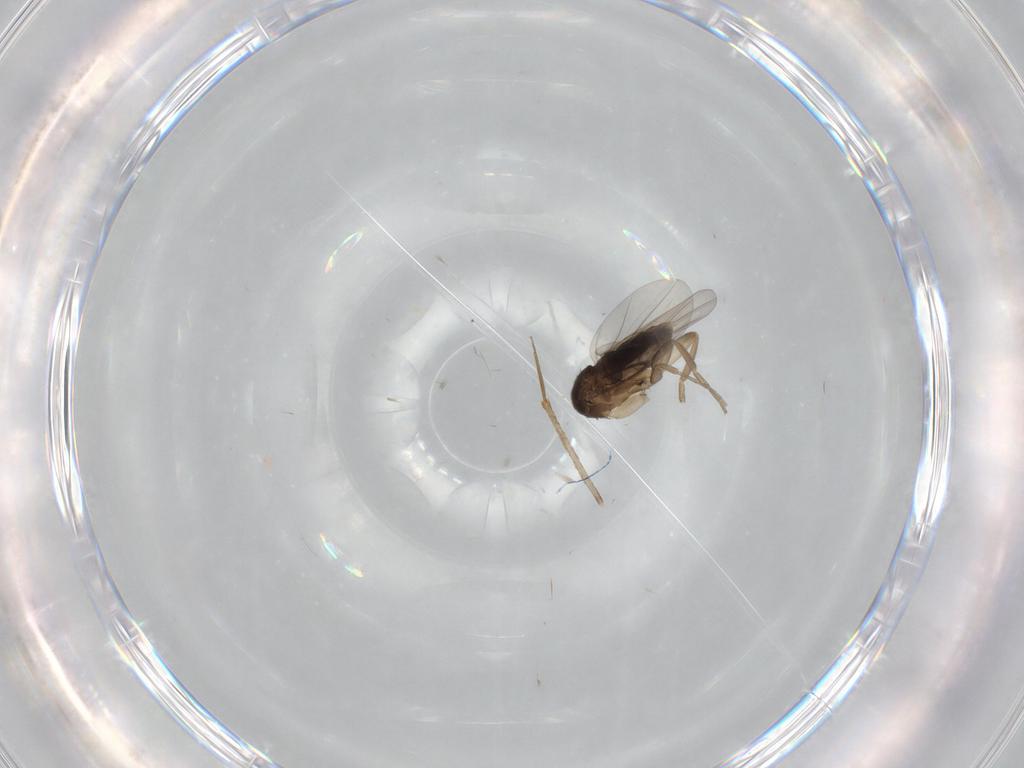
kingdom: Animalia
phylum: Arthropoda
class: Insecta
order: Diptera
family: Phoridae
